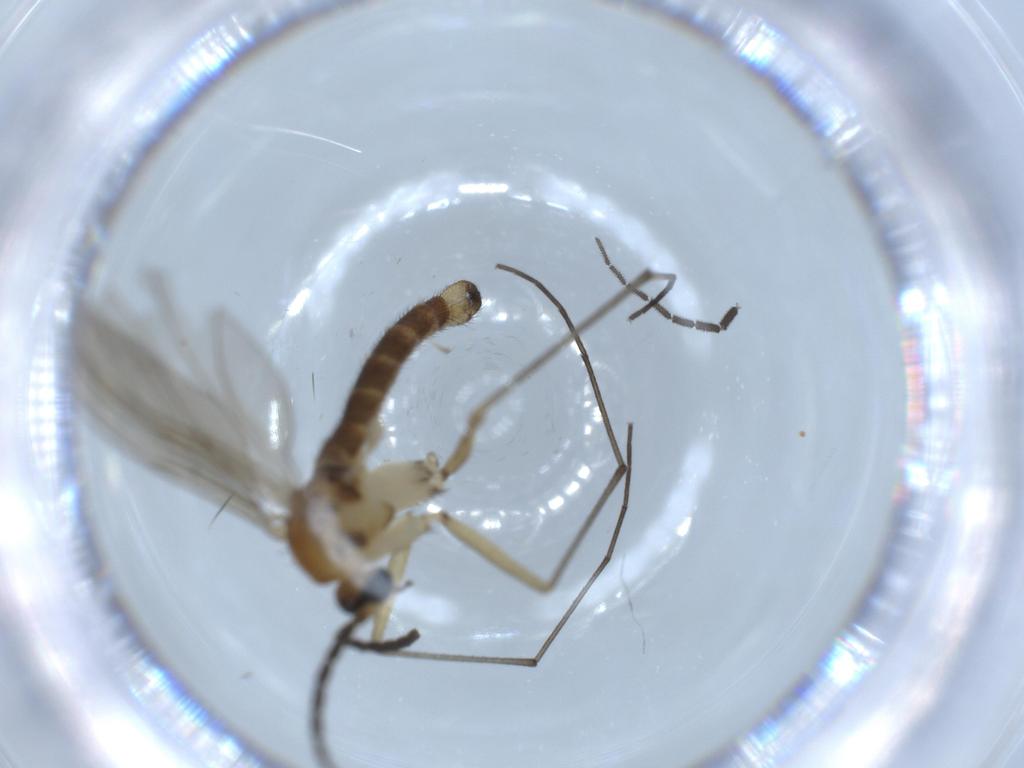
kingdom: Animalia
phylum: Arthropoda
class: Insecta
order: Diptera
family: Sciaridae
